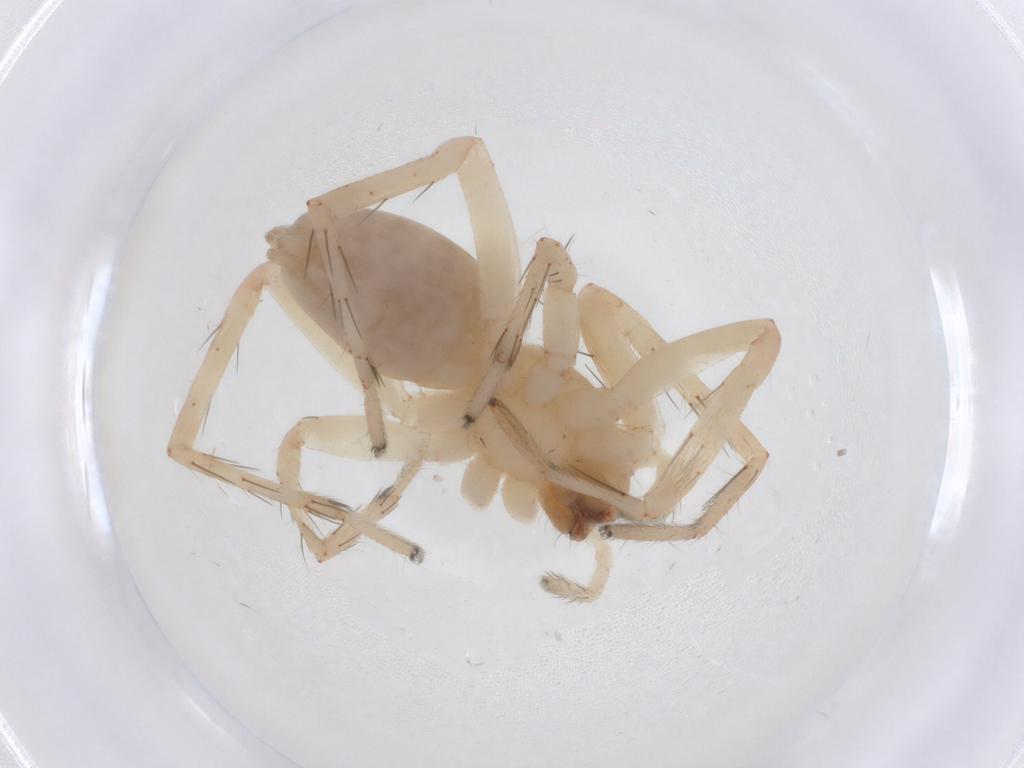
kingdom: Animalia
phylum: Arthropoda
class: Arachnida
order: Araneae
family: Anyphaenidae
